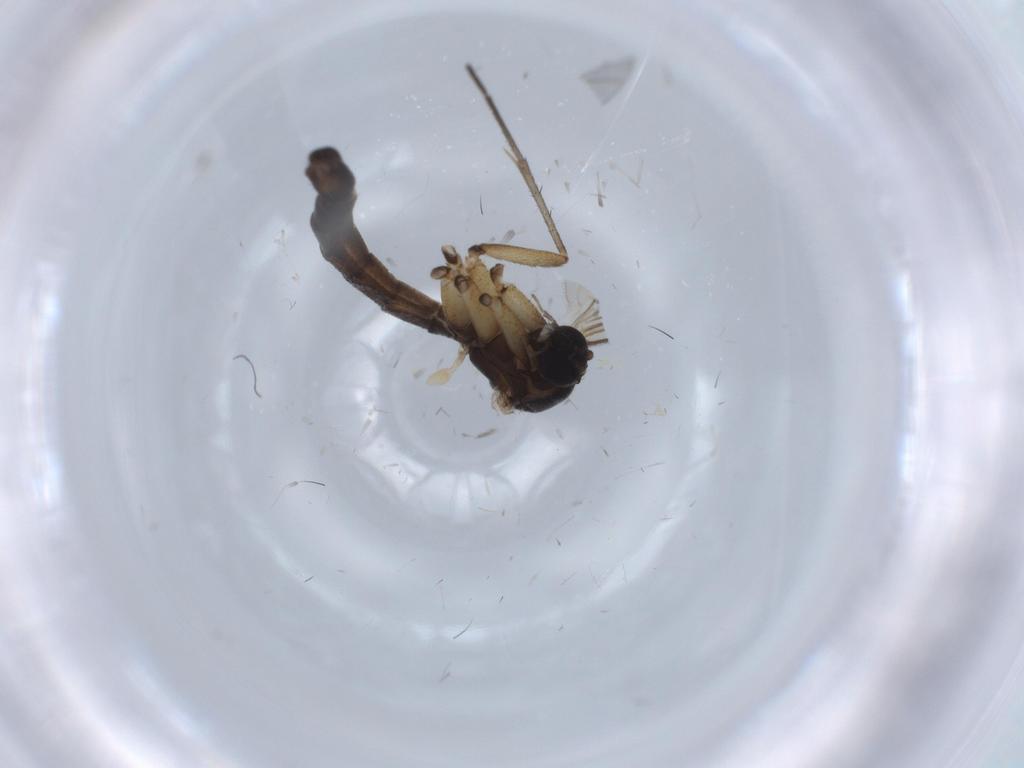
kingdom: Animalia
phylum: Arthropoda
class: Insecta
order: Diptera
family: Cecidomyiidae
